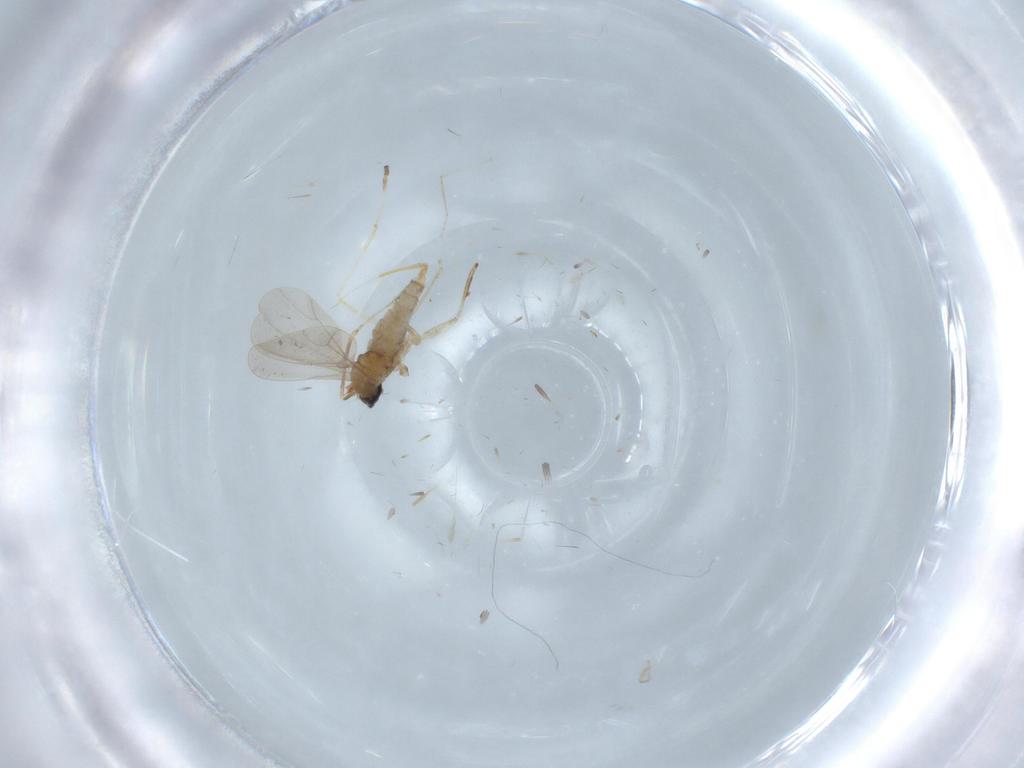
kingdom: Animalia
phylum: Arthropoda
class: Insecta
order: Diptera
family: Cecidomyiidae
